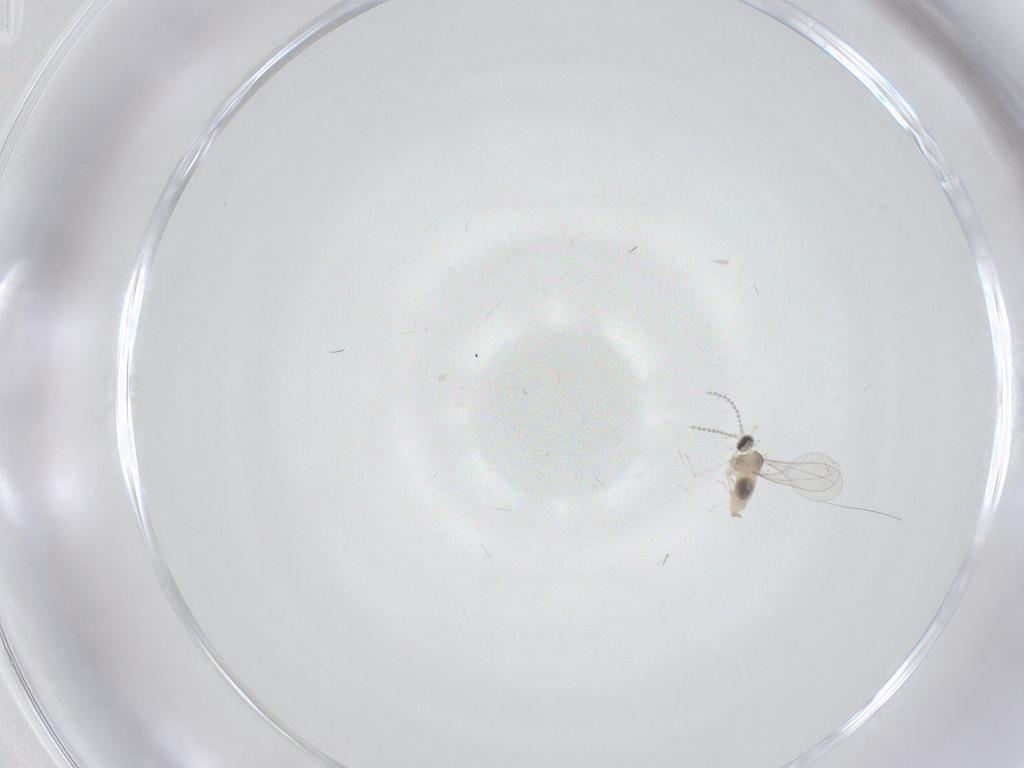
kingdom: Animalia
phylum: Arthropoda
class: Insecta
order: Diptera
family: Cecidomyiidae
